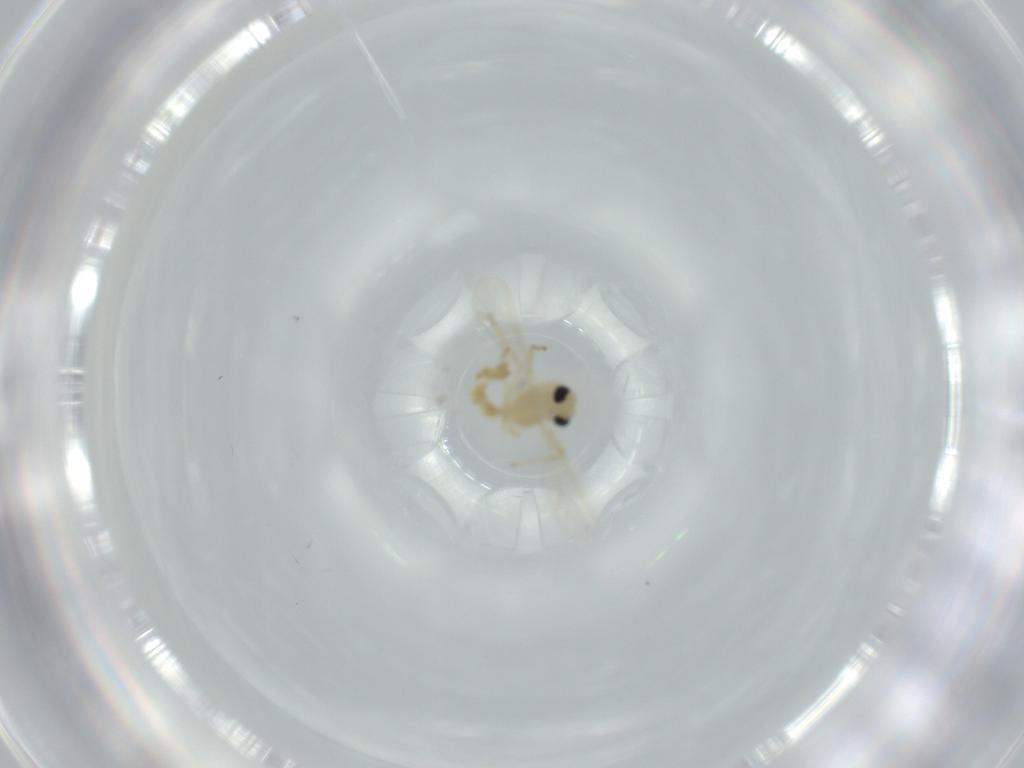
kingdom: Animalia
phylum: Arthropoda
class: Insecta
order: Diptera
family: Chironomidae
